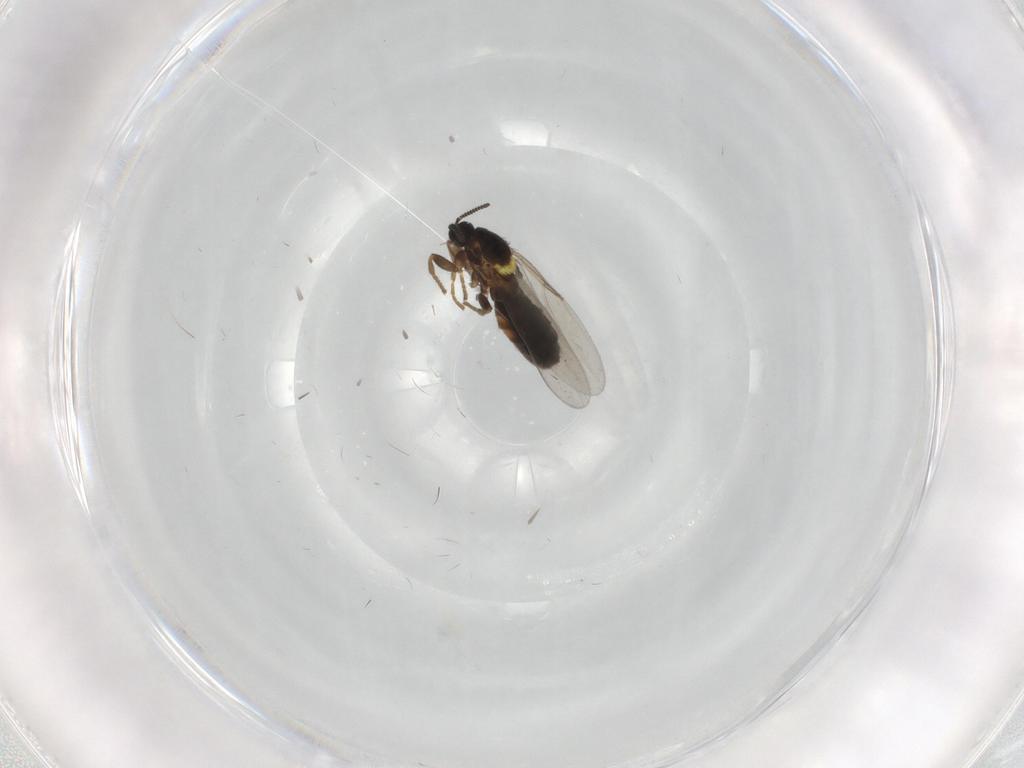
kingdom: Animalia
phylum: Arthropoda
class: Insecta
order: Diptera
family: Scatopsidae
